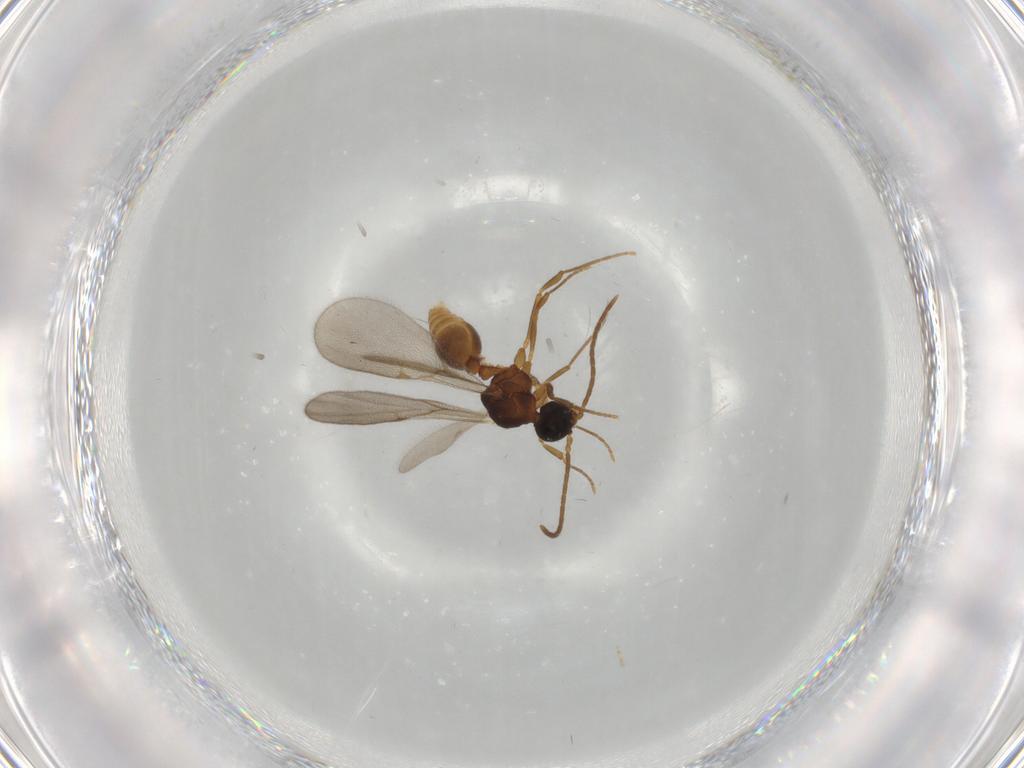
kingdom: Animalia
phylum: Arthropoda
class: Insecta
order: Hymenoptera
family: Formicidae
